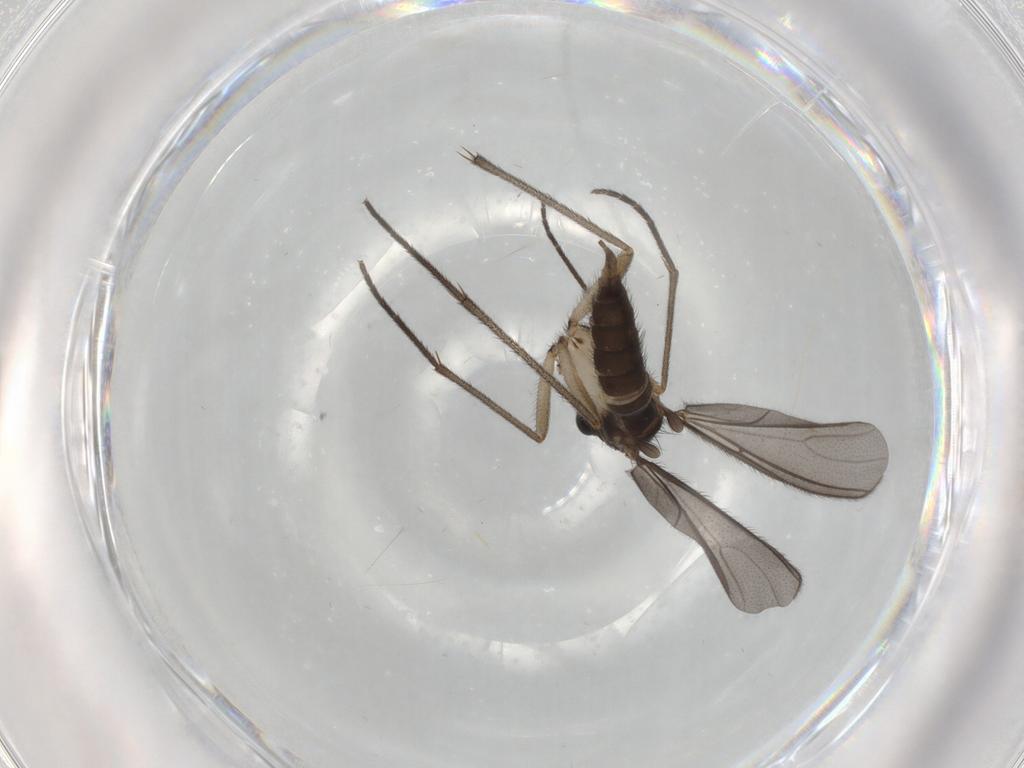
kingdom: Animalia
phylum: Arthropoda
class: Insecta
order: Diptera
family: Sciaridae
